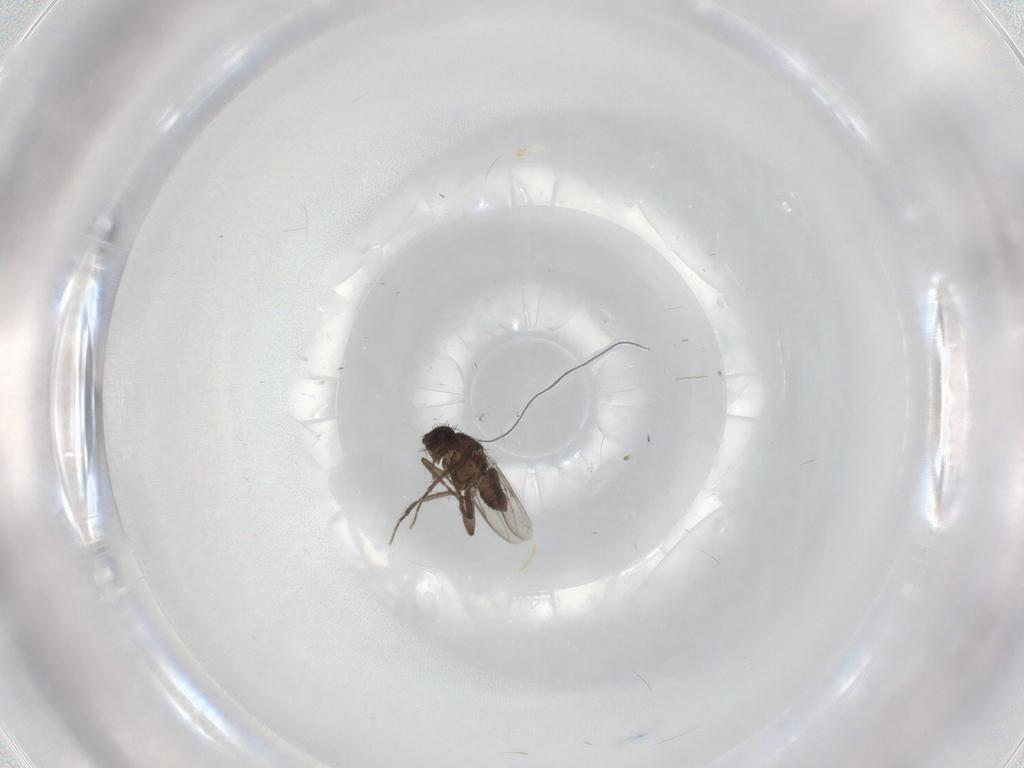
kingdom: Animalia
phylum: Arthropoda
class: Insecta
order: Diptera
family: Sphaeroceridae
